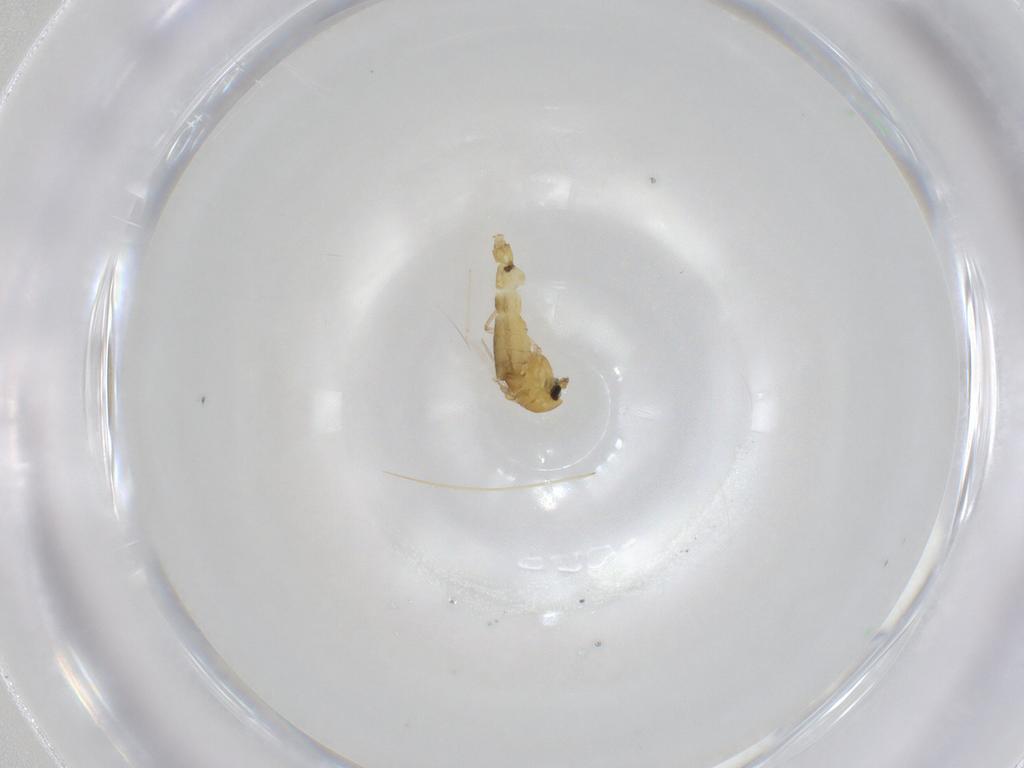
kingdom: Animalia
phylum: Arthropoda
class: Insecta
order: Diptera
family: Chironomidae
